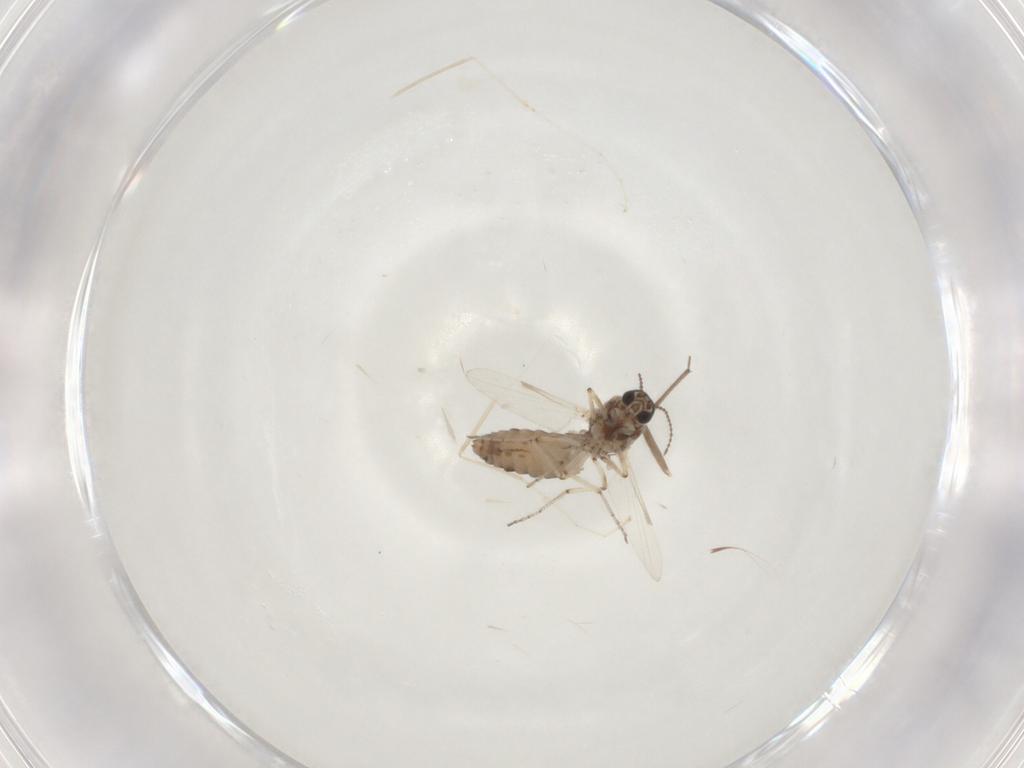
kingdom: Animalia
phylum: Arthropoda
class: Insecta
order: Diptera
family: Ceratopogonidae
